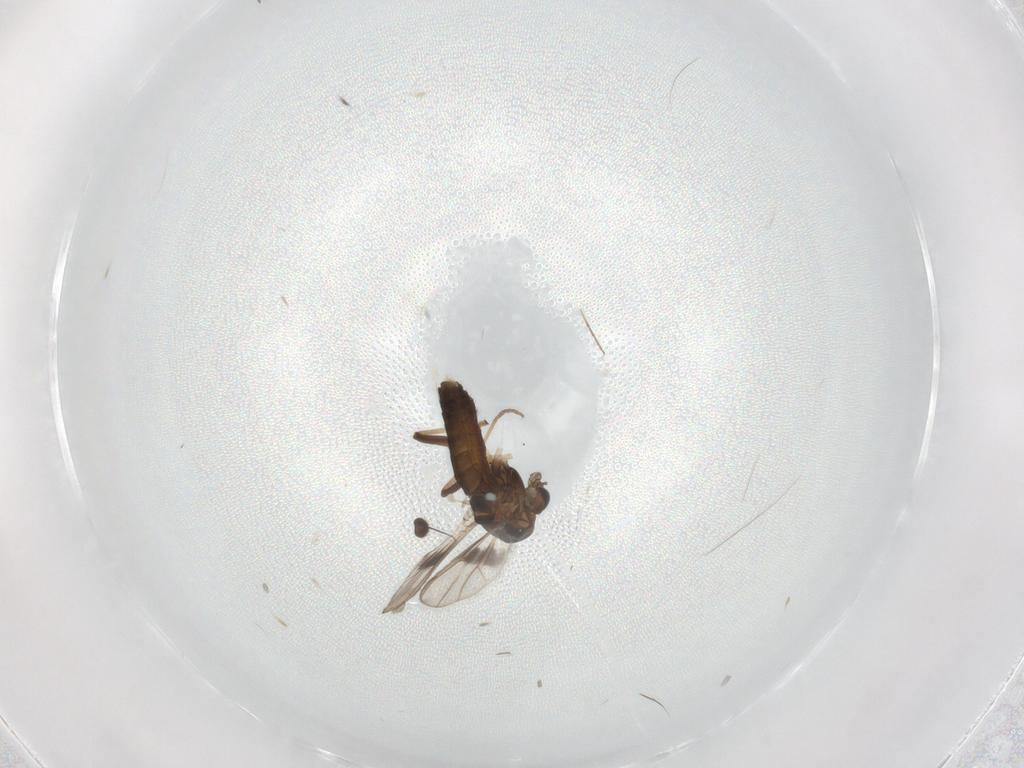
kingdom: Animalia
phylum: Arthropoda
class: Insecta
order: Diptera
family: Chironomidae
